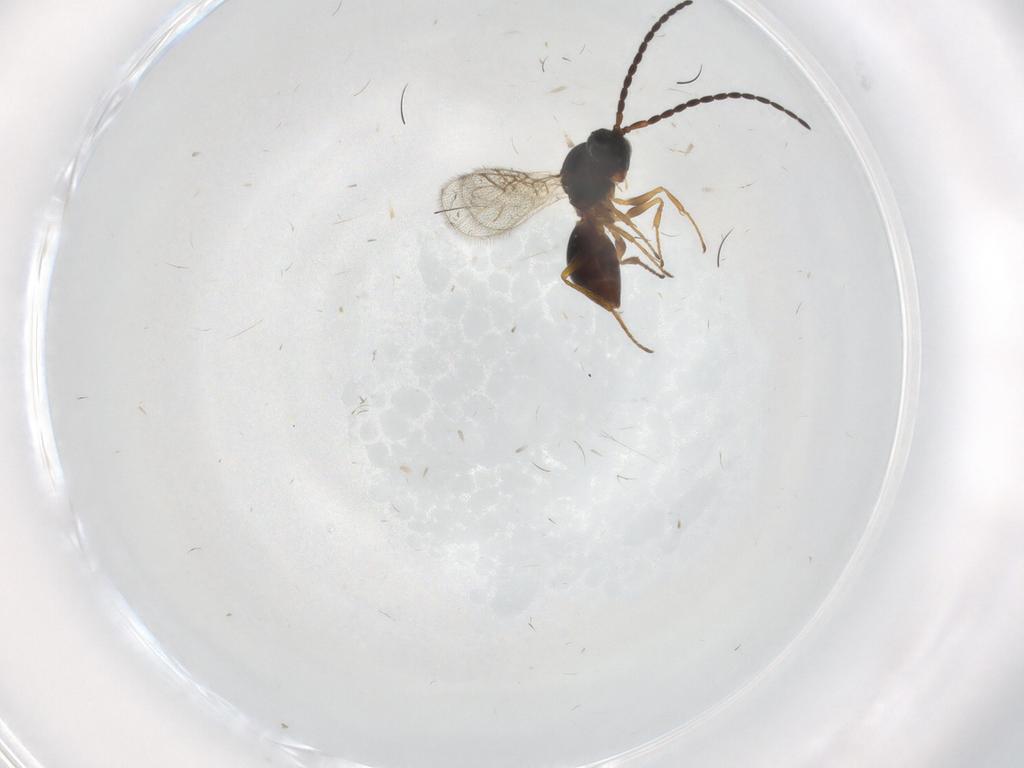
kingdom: Animalia
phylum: Arthropoda
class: Insecta
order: Hymenoptera
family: Figitidae
